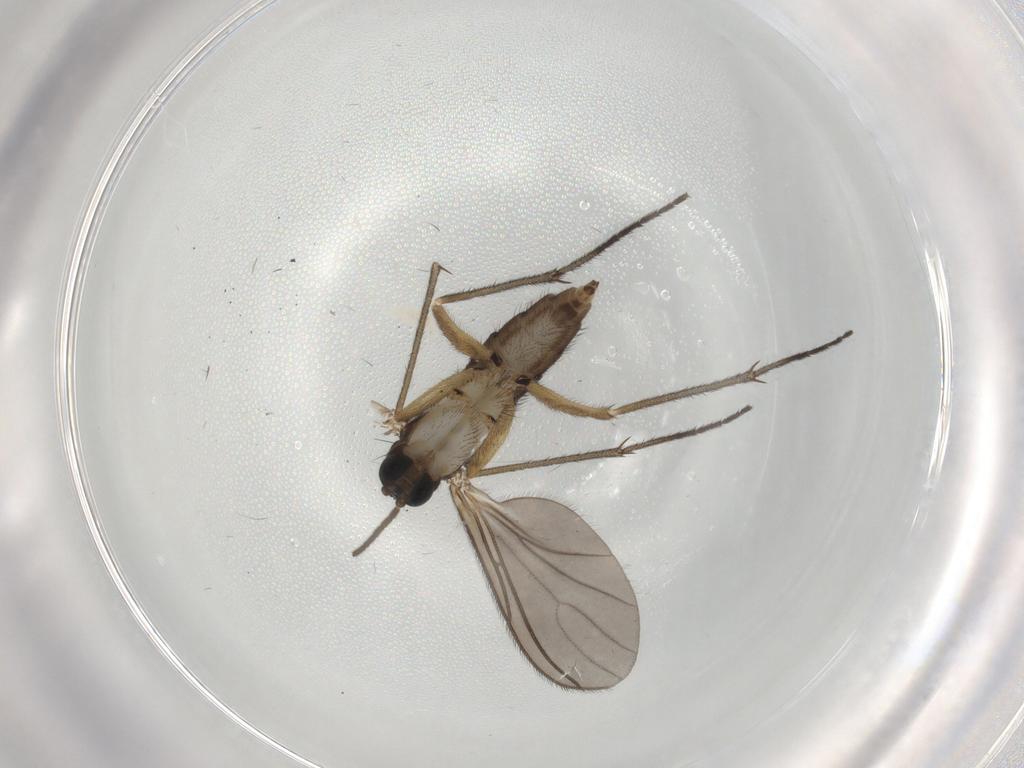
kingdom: Animalia
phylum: Arthropoda
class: Insecta
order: Diptera
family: Sciaridae
